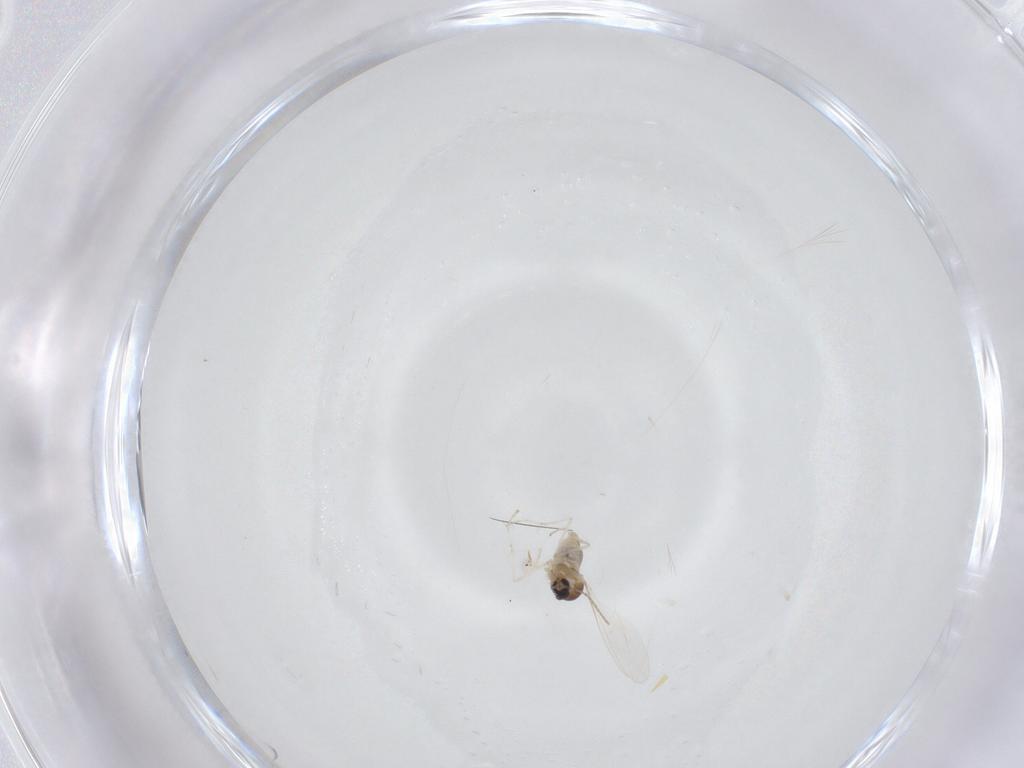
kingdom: Animalia
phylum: Arthropoda
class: Insecta
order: Diptera
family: Cecidomyiidae
